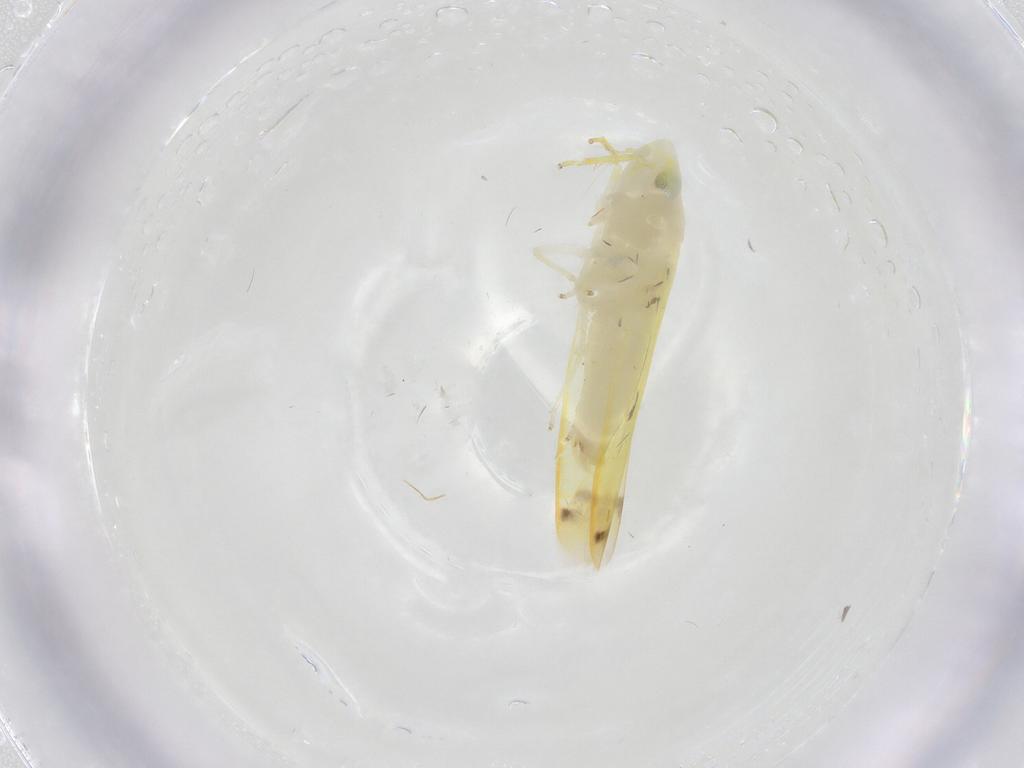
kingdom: Animalia
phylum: Arthropoda
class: Insecta
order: Hemiptera
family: Cicadellidae
